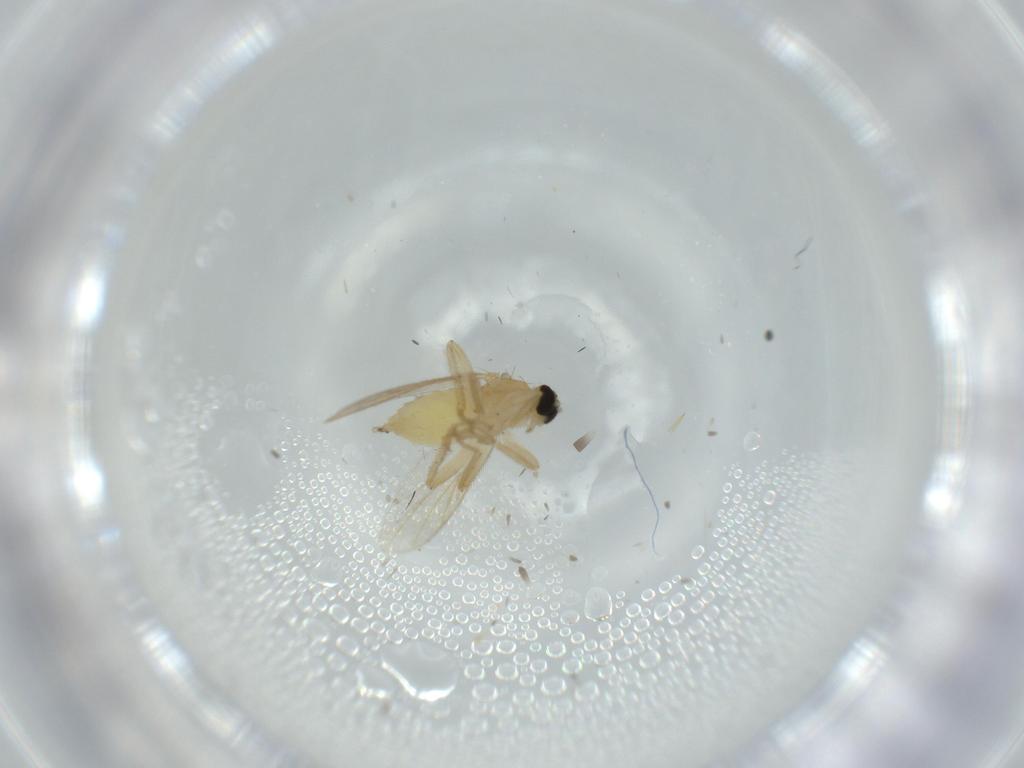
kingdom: Animalia
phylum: Arthropoda
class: Insecta
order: Diptera
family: Hybotidae
